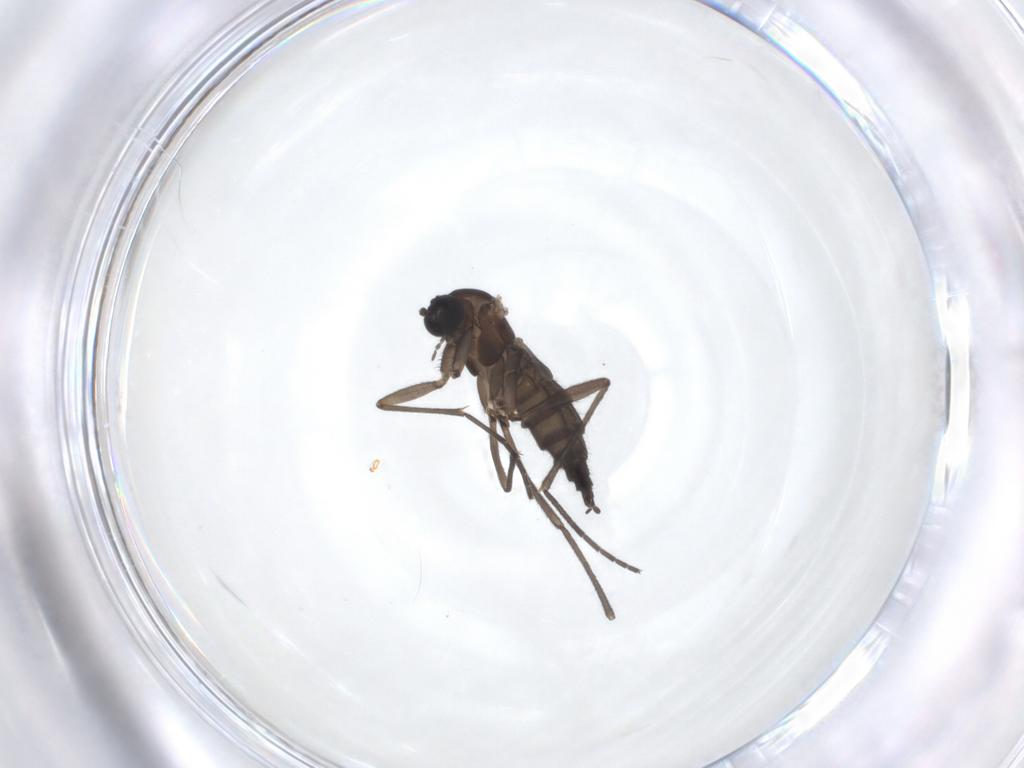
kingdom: Animalia
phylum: Arthropoda
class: Insecta
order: Diptera
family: Sciaridae
